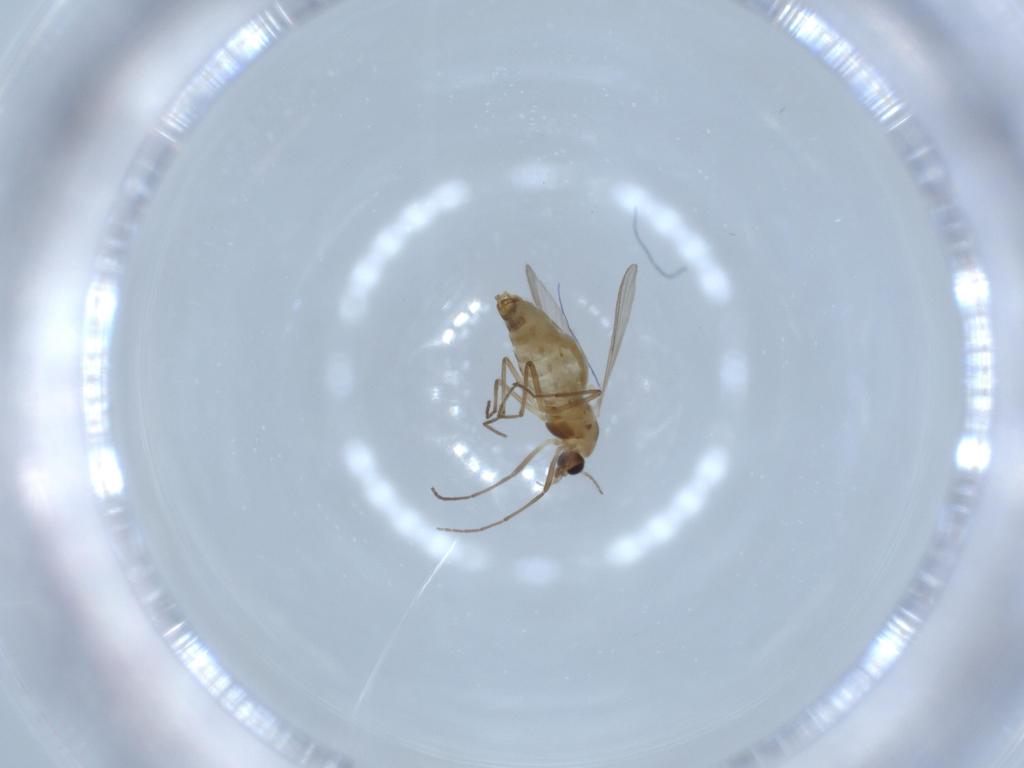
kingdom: Animalia
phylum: Arthropoda
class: Insecta
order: Diptera
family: Chironomidae
